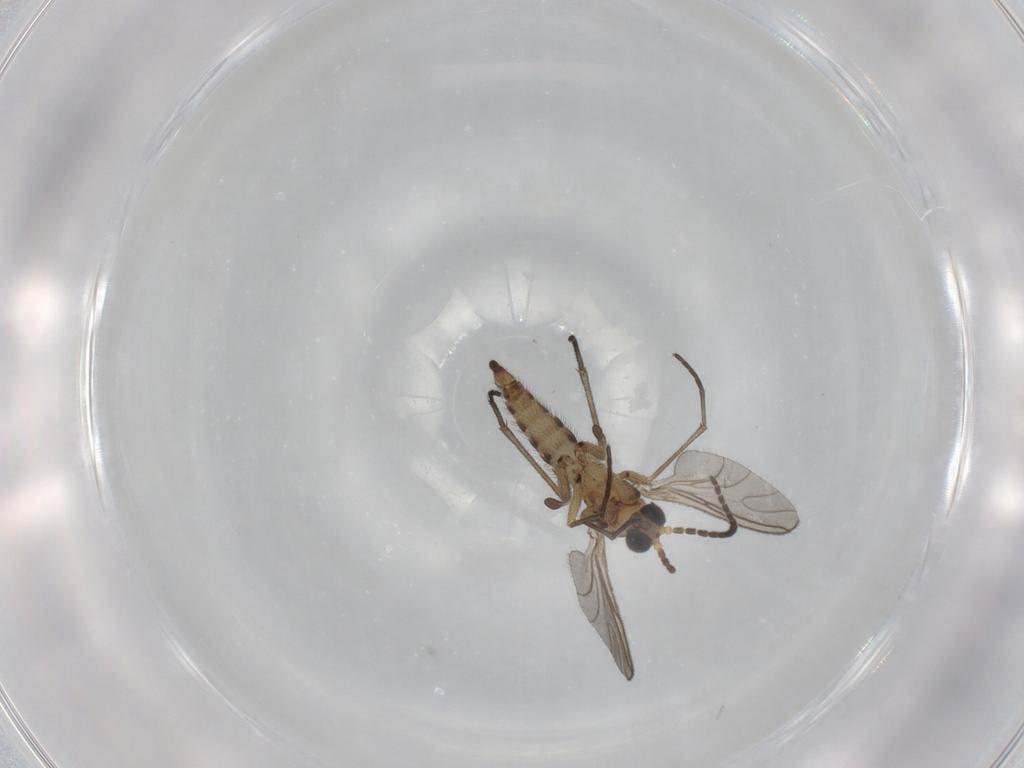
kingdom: Animalia
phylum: Arthropoda
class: Insecta
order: Diptera
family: Sciaridae
